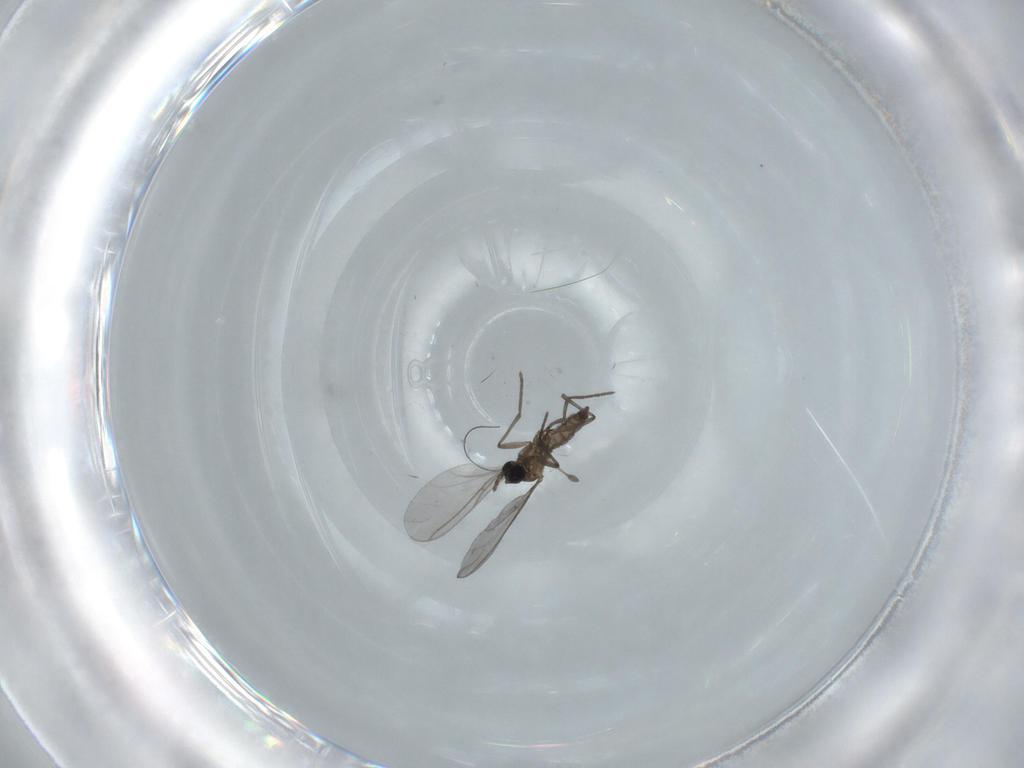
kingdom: Animalia
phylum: Arthropoda
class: Insecta
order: Diptera
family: Sciaridae
